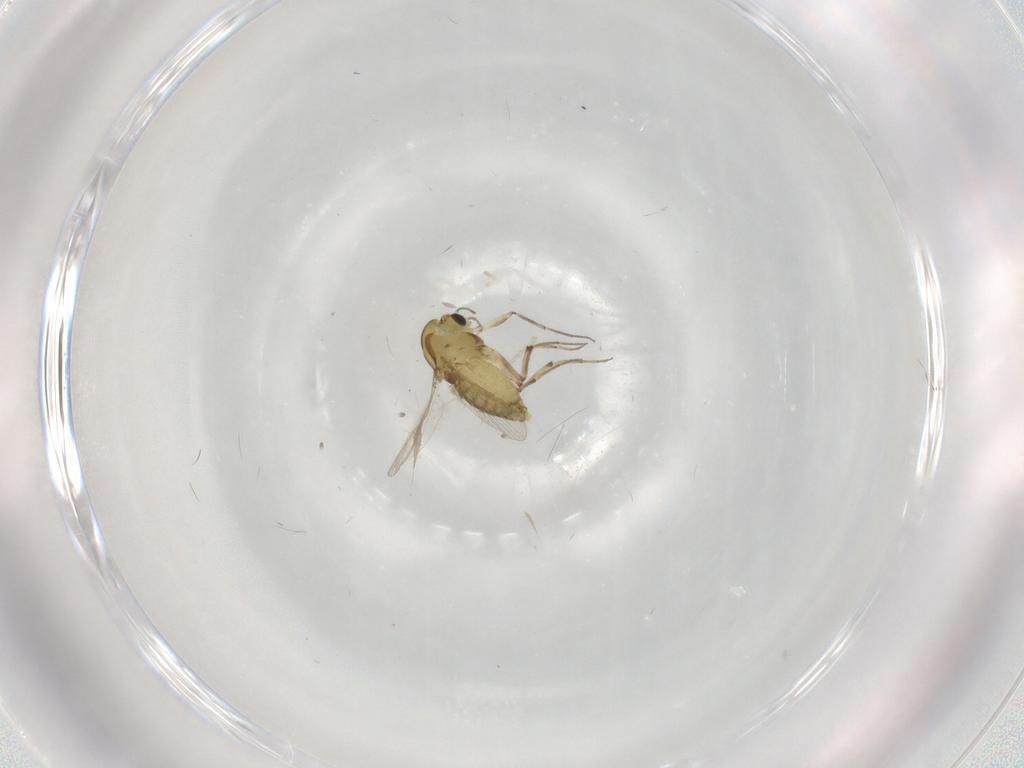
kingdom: Animalia
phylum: Arthropoda
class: Insecta
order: Diptera
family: Chironomidae
